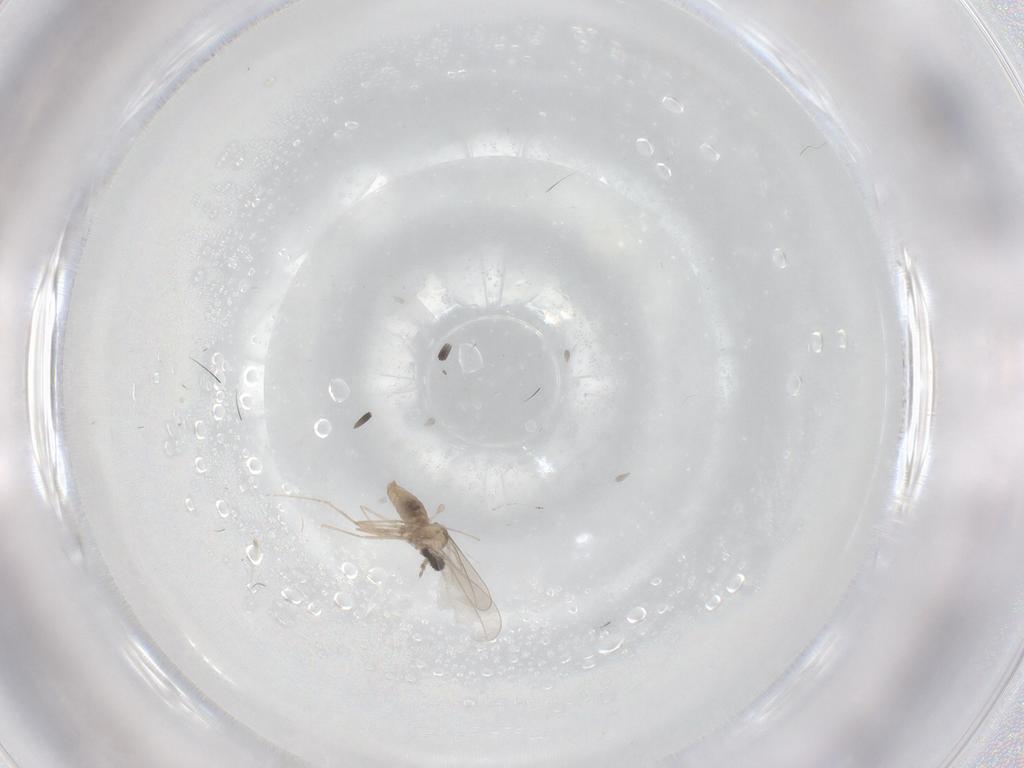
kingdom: Animalia
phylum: Arthropoda
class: Insecta
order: Diptera
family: Cecidomyiidae
